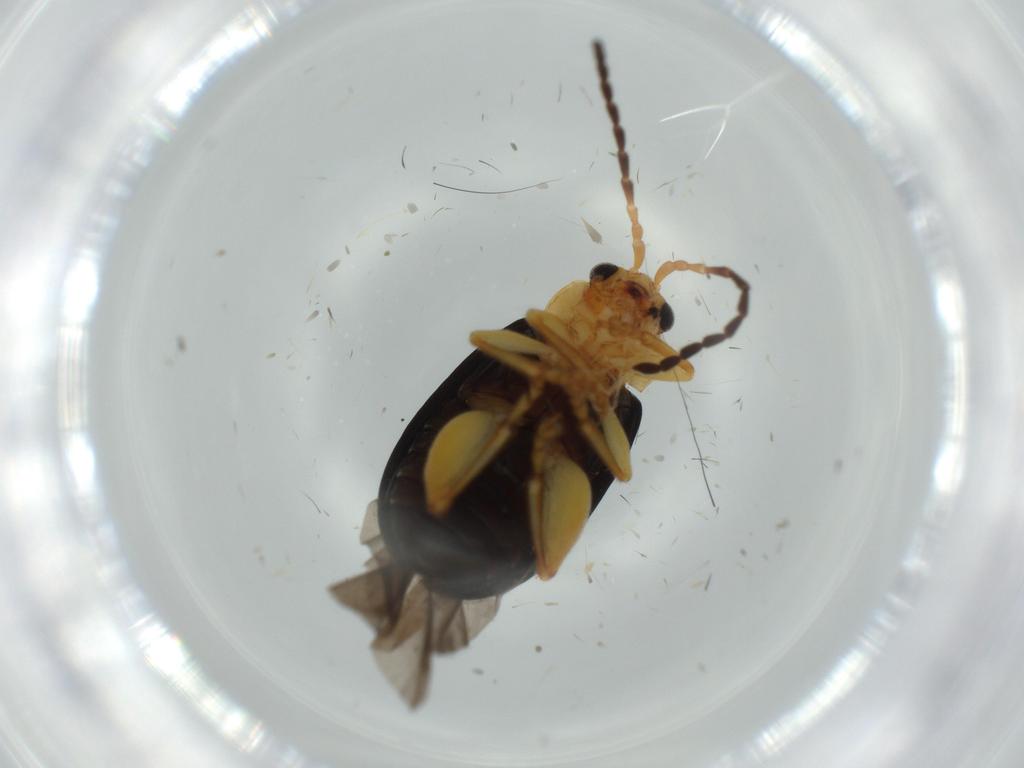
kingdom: Animalia
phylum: Arthropoda
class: Insecta
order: Coleoptera
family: Chrysomelidae
